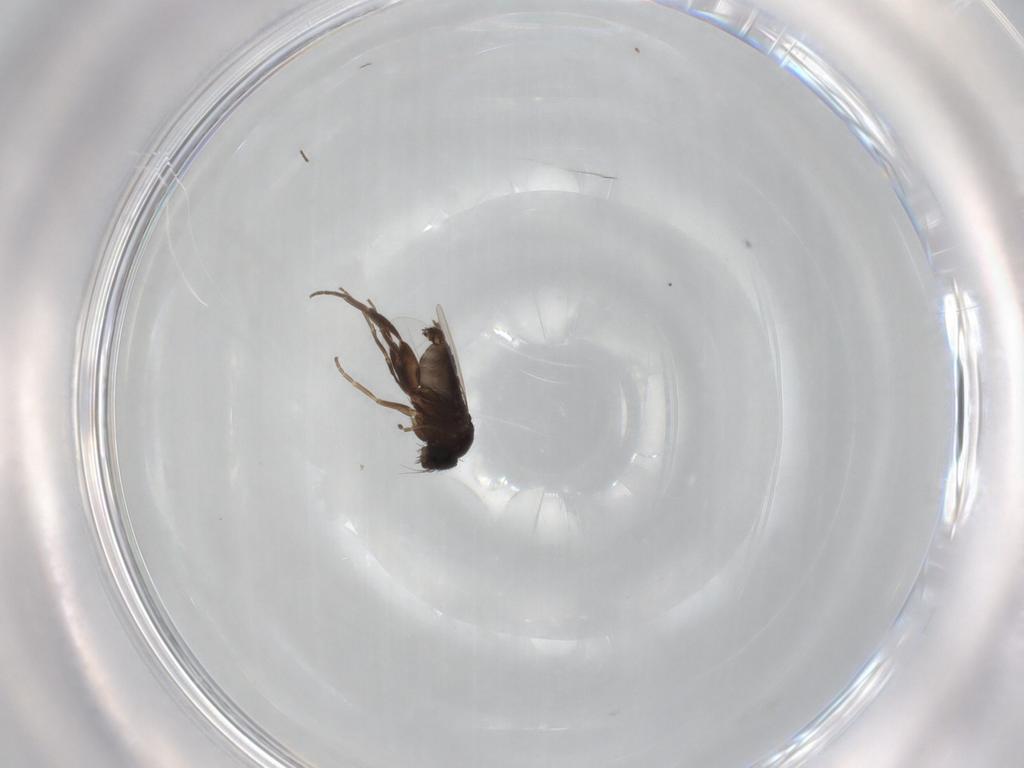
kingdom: Animalia
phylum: Arthropoda
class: Insecta
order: Diptera
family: Phoridae
